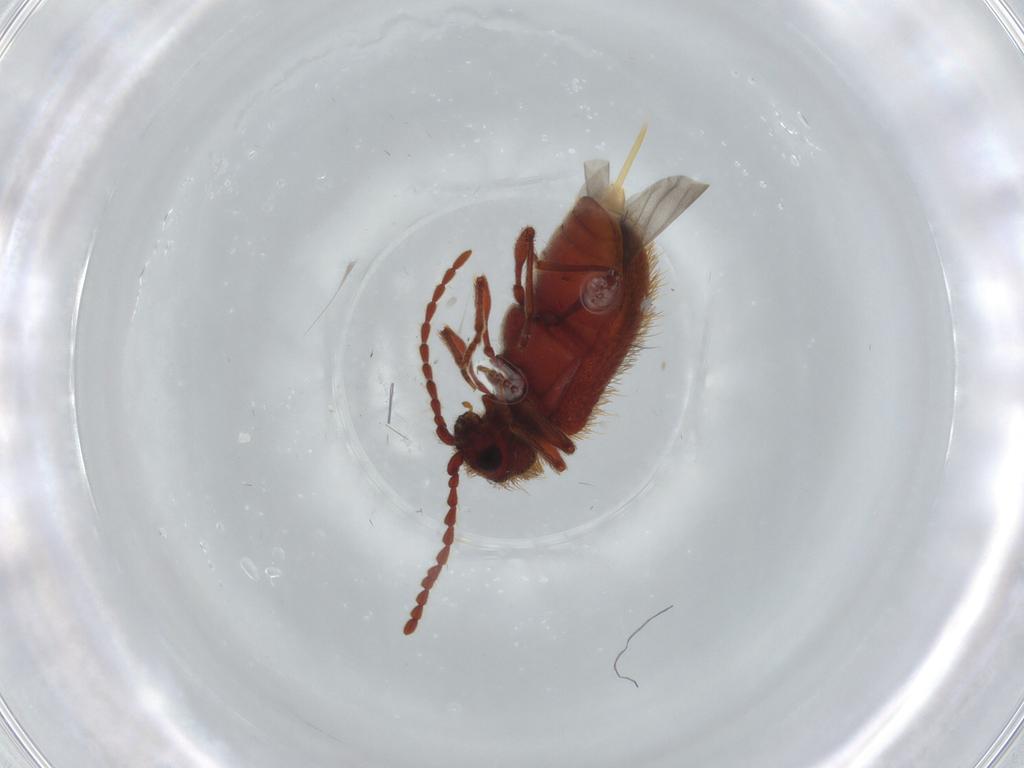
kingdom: Animalia
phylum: Arthropoda
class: Insecta
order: Coleoptera
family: Ptinidae
